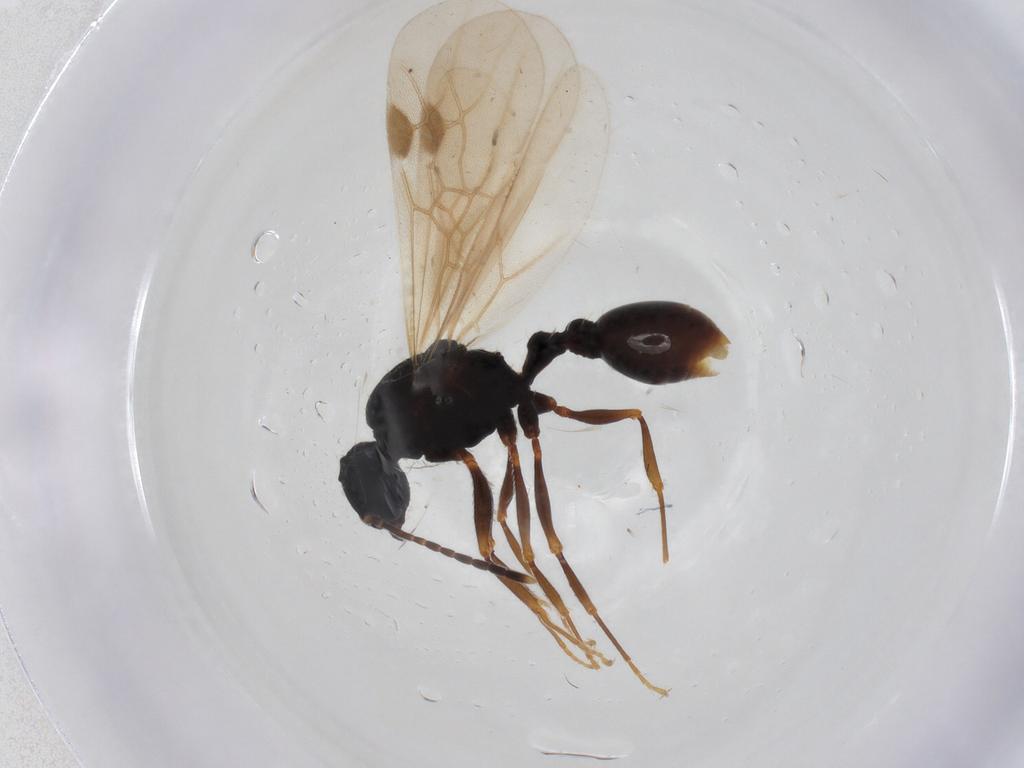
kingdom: Animalia
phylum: Arthropoda
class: Insecta
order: Hymenoptera
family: Formicidae
